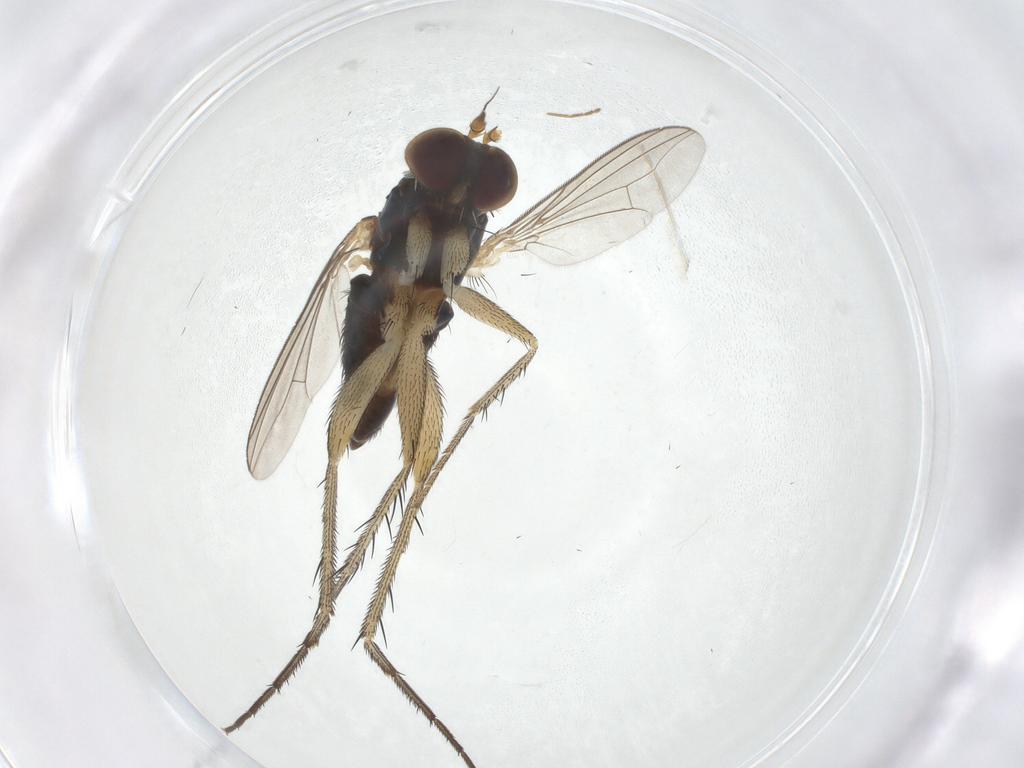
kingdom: Animalia
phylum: Arthropoda
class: Insecta
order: Diptera
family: Dolichopodidae
